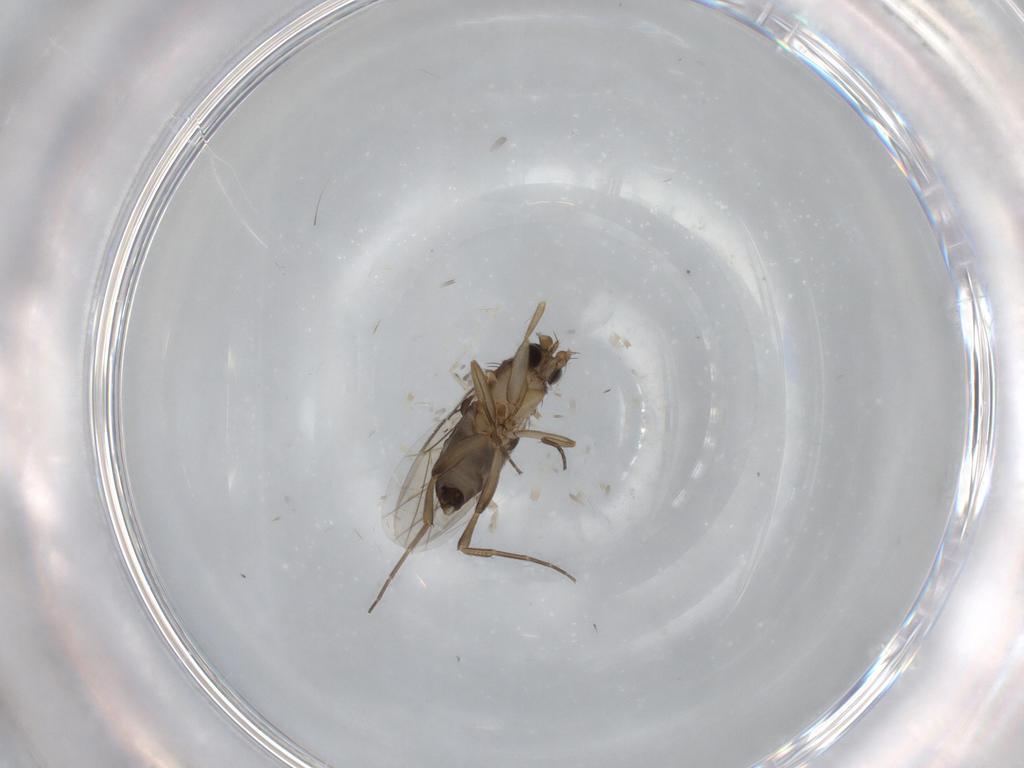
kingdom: Animalia
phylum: Arthropoda
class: Insecta
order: Diptera
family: Phoridae
